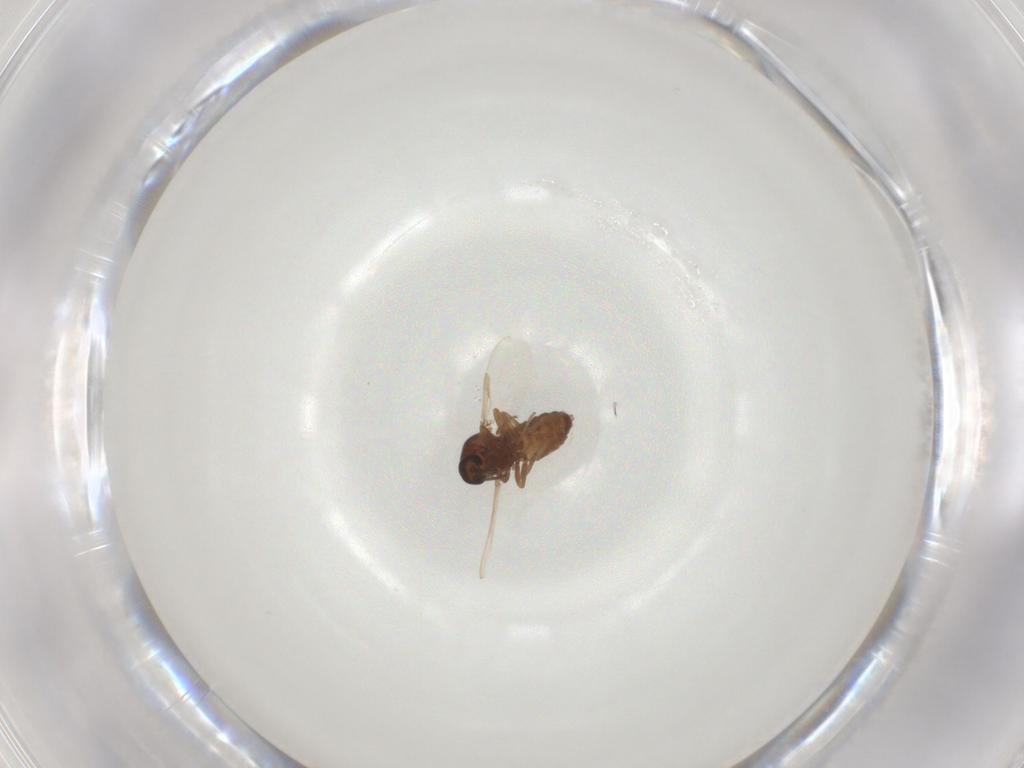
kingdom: Animalia
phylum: Arthropoda
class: Insecta
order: Diptera
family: Ceratopogonidae
